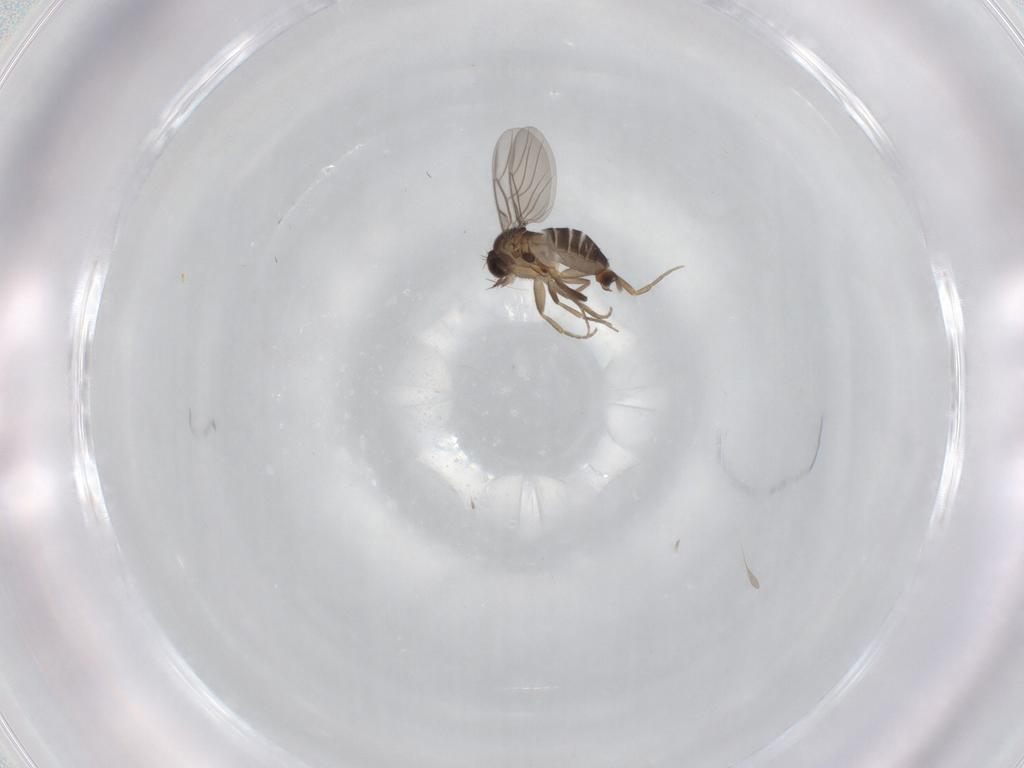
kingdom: Animalia
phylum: Arthropoda
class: Insecta
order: Diptera
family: Phoridae
